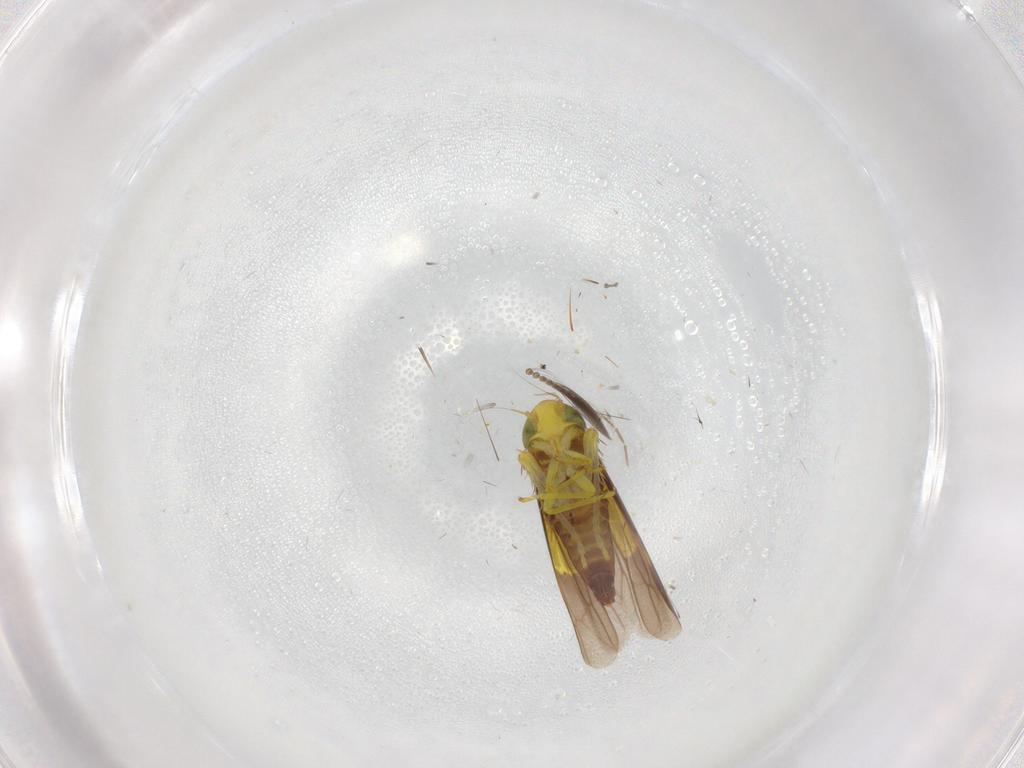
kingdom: Animalia
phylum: Arthropoda
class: Insecta
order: Hemiptera
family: Cicadellidae
